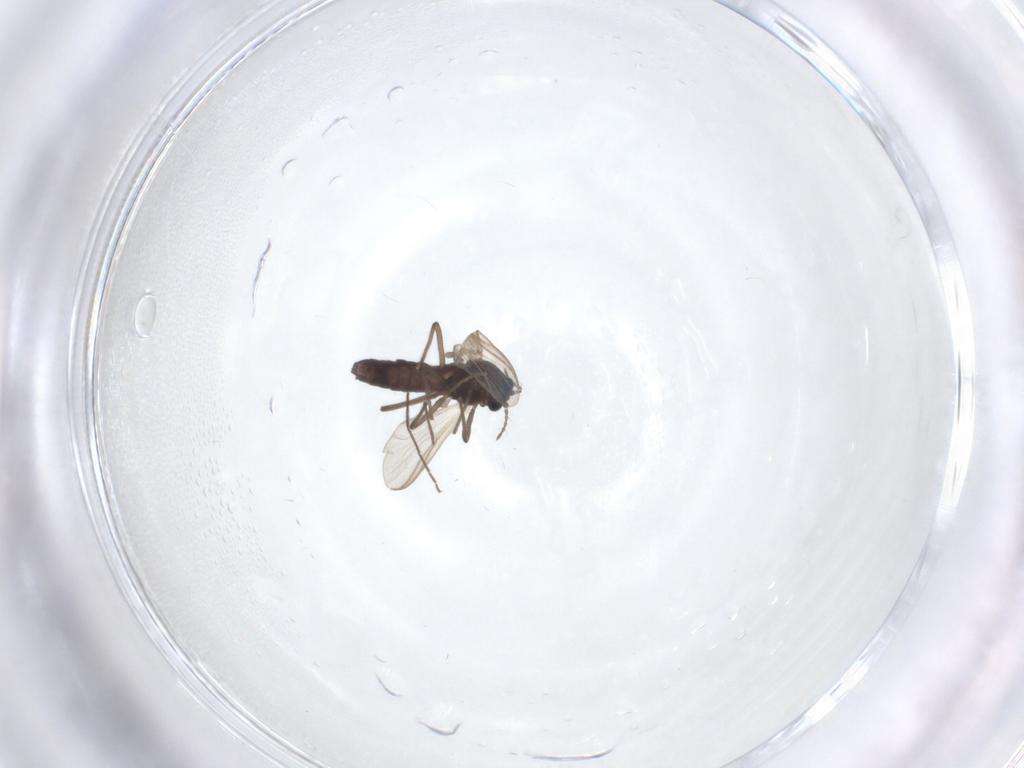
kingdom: Animalia
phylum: Arthropoda
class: Insecta
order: Diptera
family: Chironomidae
